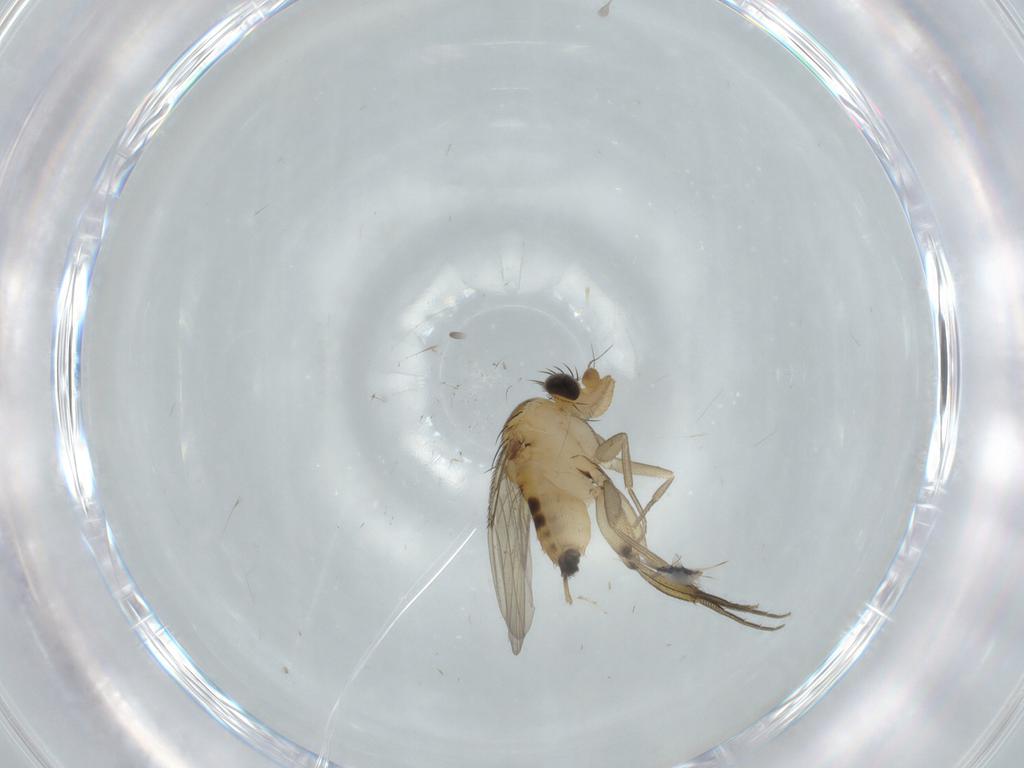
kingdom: Animalia
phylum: Arthropoda
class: Insecta
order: Diptera
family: Phoridae
